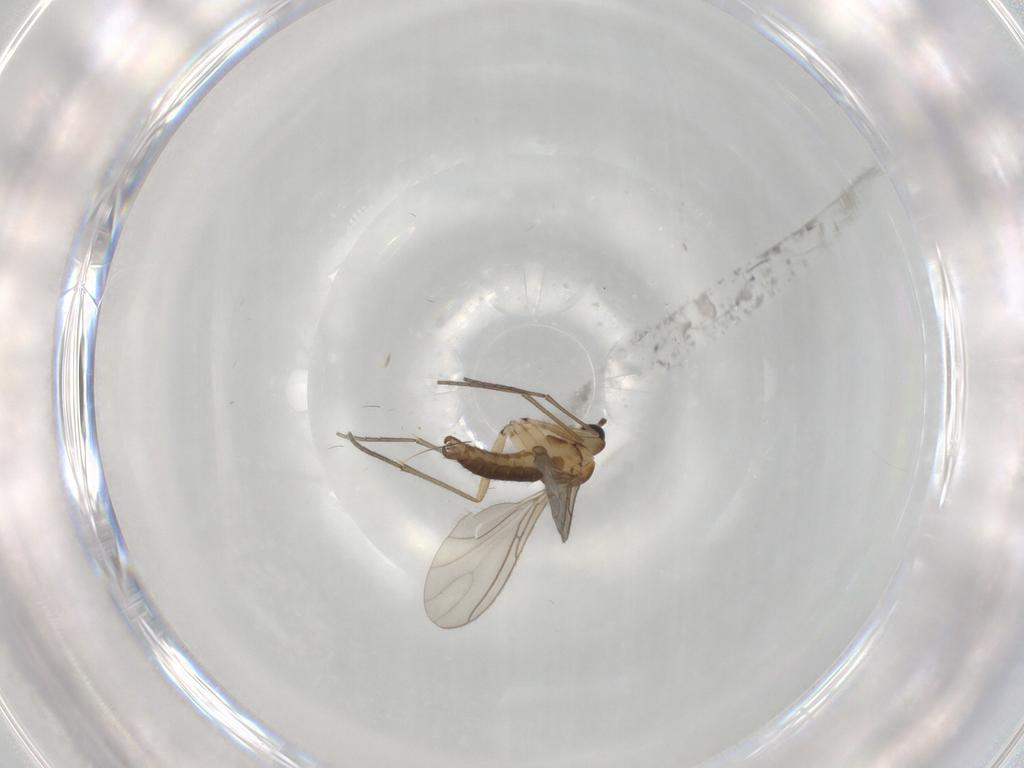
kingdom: Animalia
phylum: Arthropoda
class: Insecta
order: Diptera
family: Sciaridae
